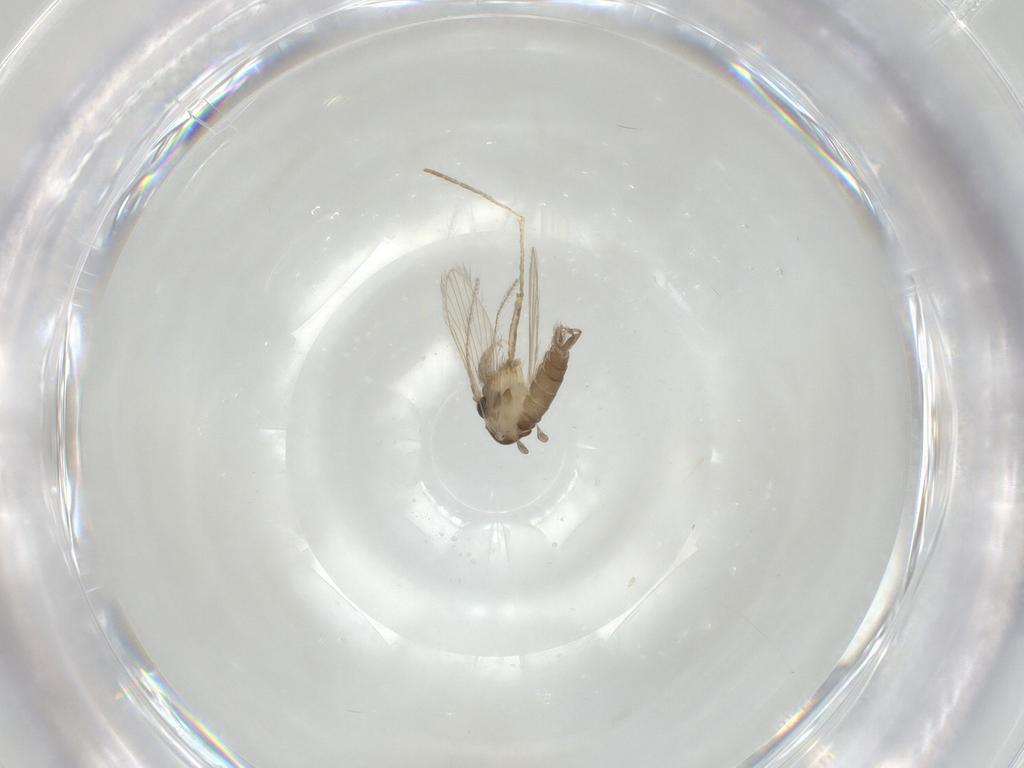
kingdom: Animalia
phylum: Arthropoda
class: Insecta
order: Diptera
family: Psychodidae
